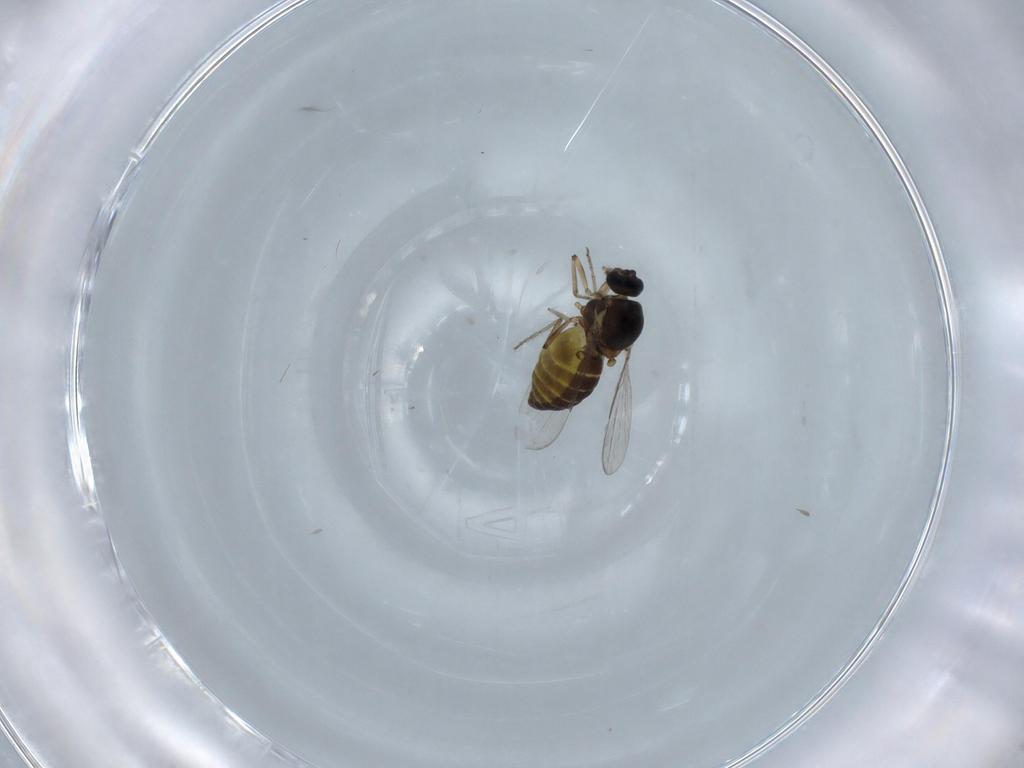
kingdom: Animalia
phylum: Arthropoda
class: Insecta
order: Diptera
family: Ceratopogonidae
